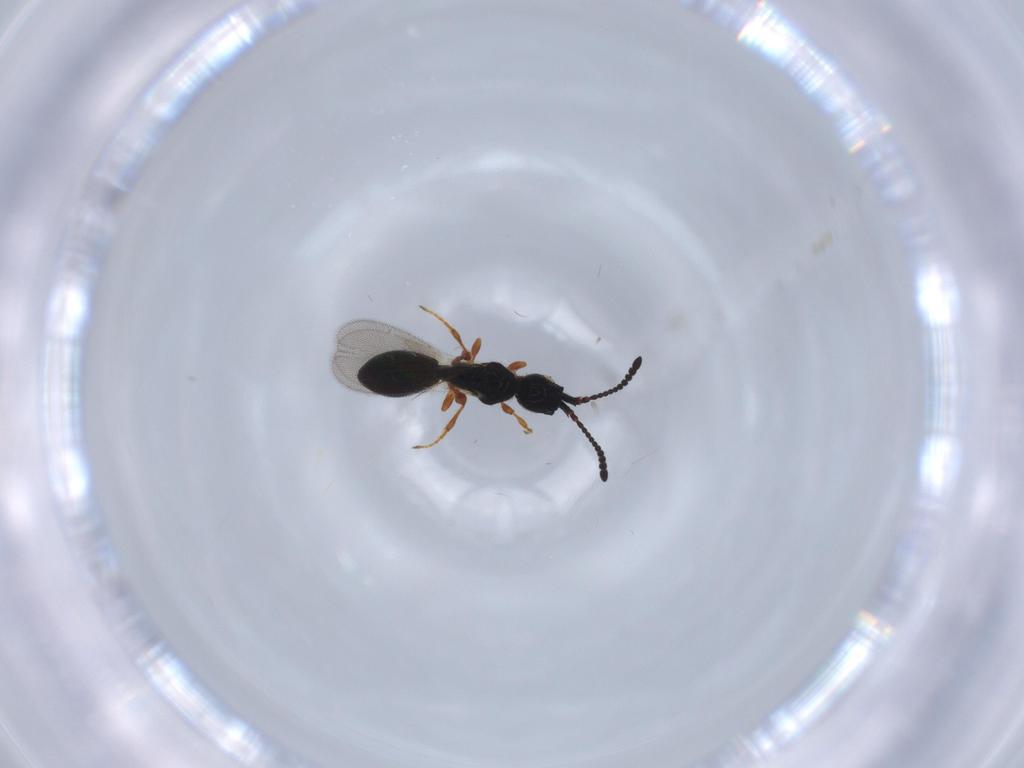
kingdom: Animalia
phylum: Arthropoda
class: Insecta
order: Hymenoptera
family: Diapriidae
